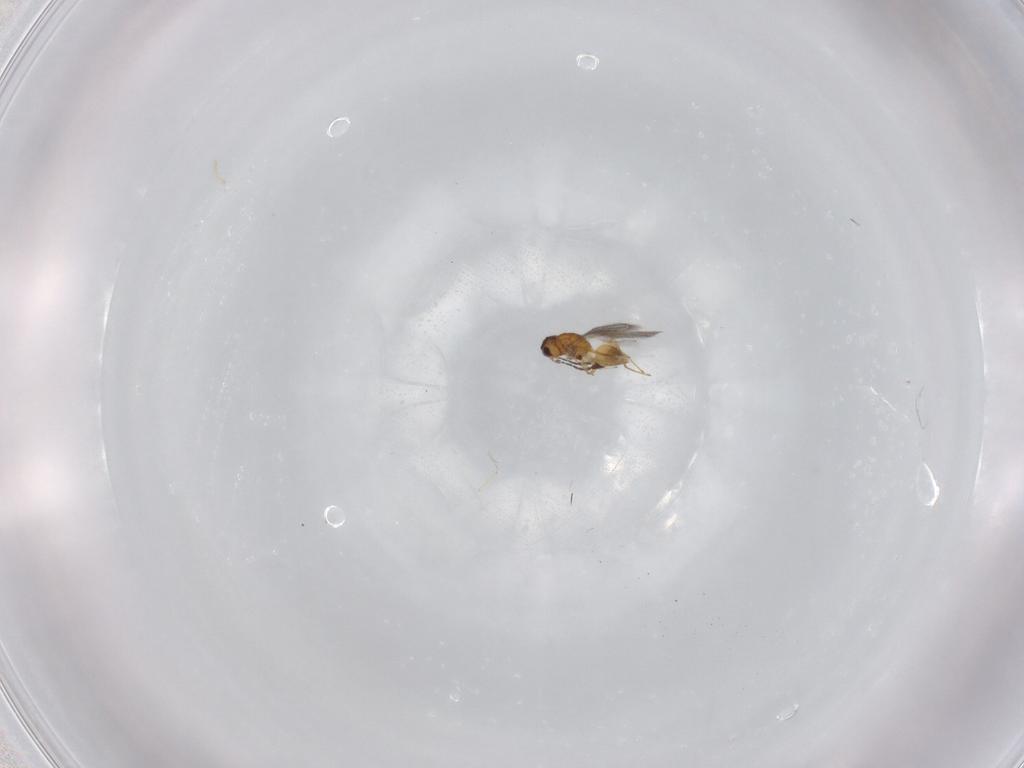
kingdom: Animalia
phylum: Arthropoda
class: Insecta
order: Hymenoptera
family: Mymaridae
